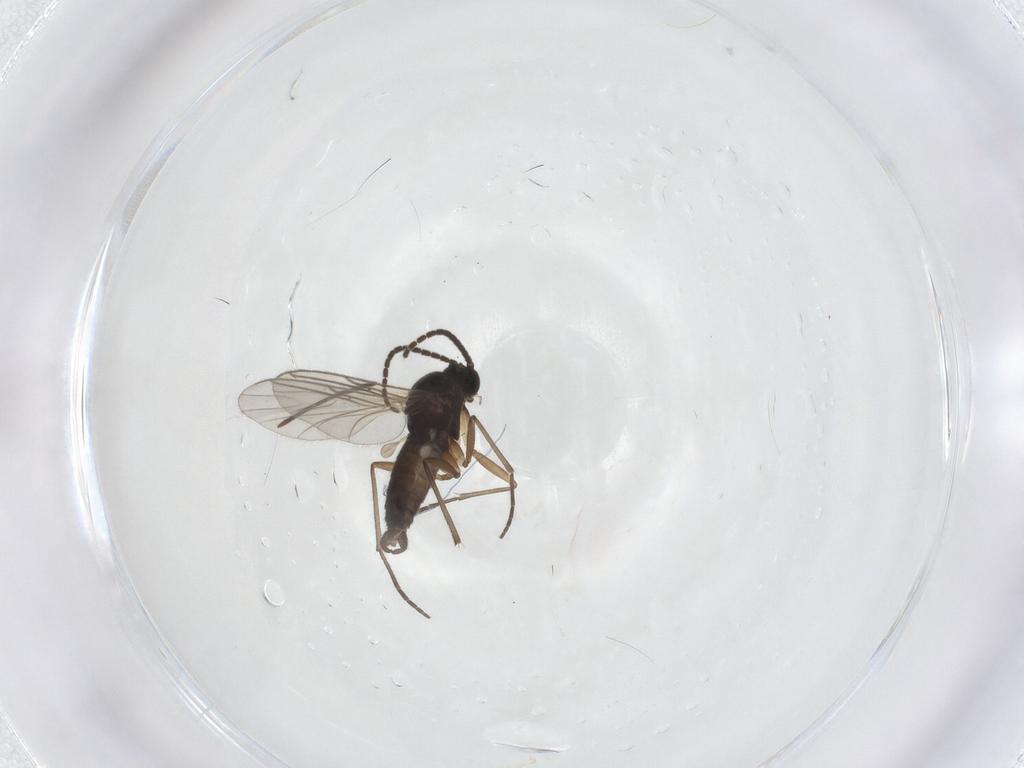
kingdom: Animalia
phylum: Arthropoda
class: Insecta
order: Diptera
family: Sciaridae
